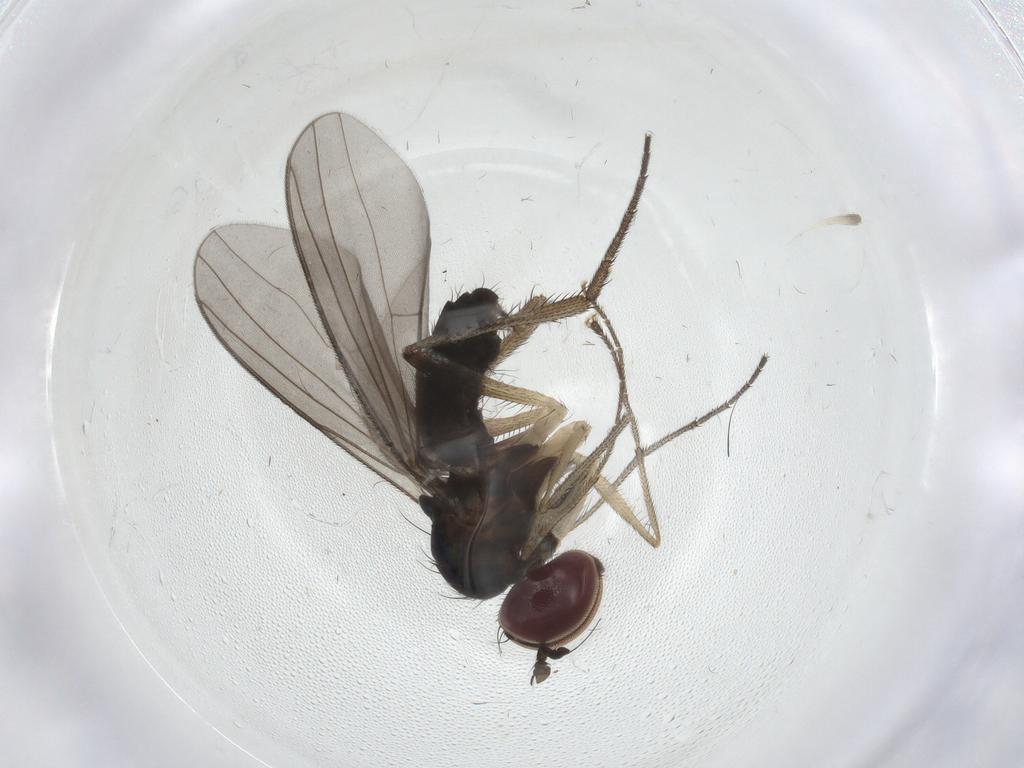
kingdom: Animalia
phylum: Arthropoda
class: Insecta
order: Diptera
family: Dolichopodidae
